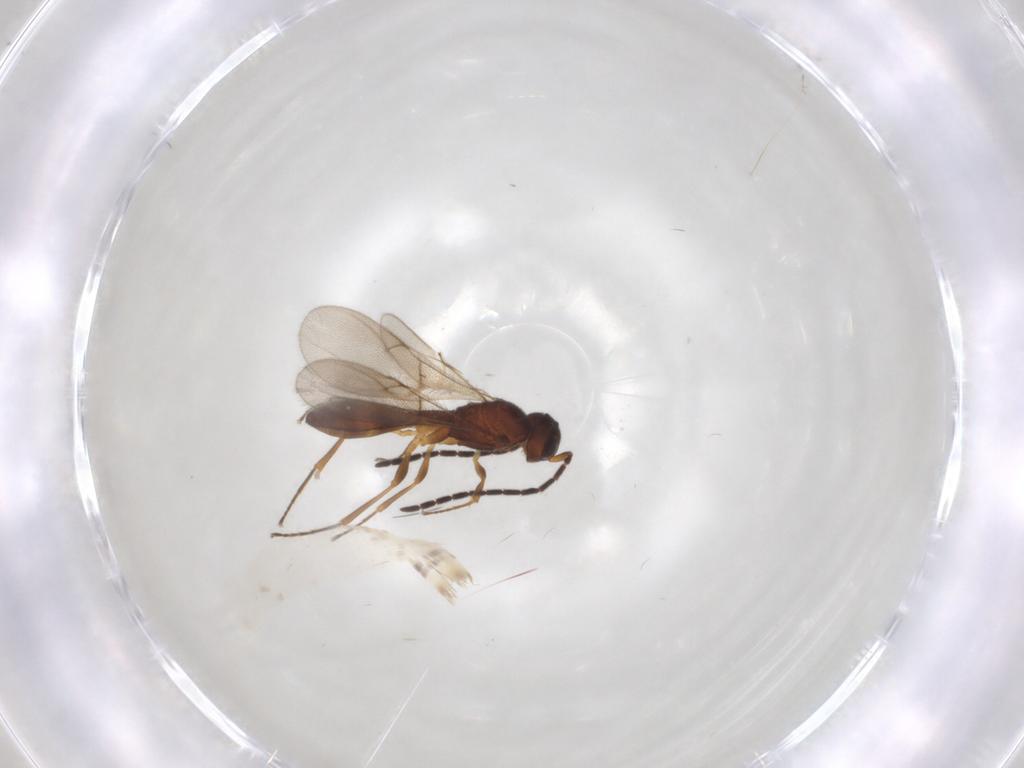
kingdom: Animalia
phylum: Arthropoda
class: Insecta
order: Hymenoptera
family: Scelionidae
